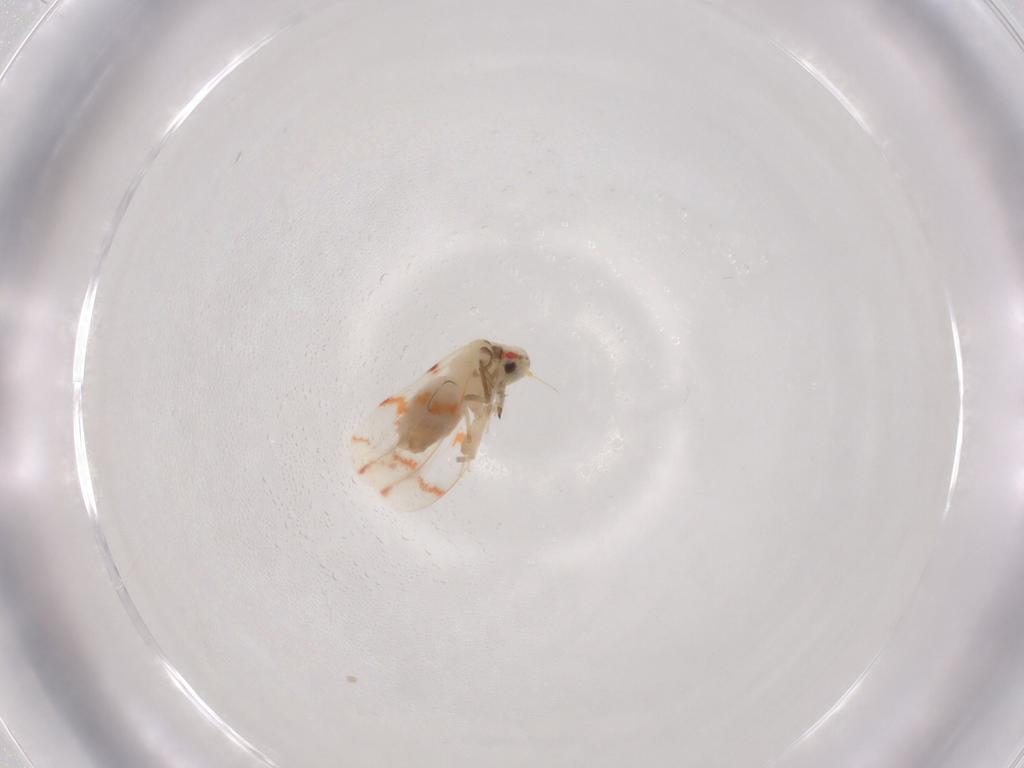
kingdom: Animalia
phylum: Arthropoda
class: Insecta
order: Hemiptera
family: Aleyrodidae
